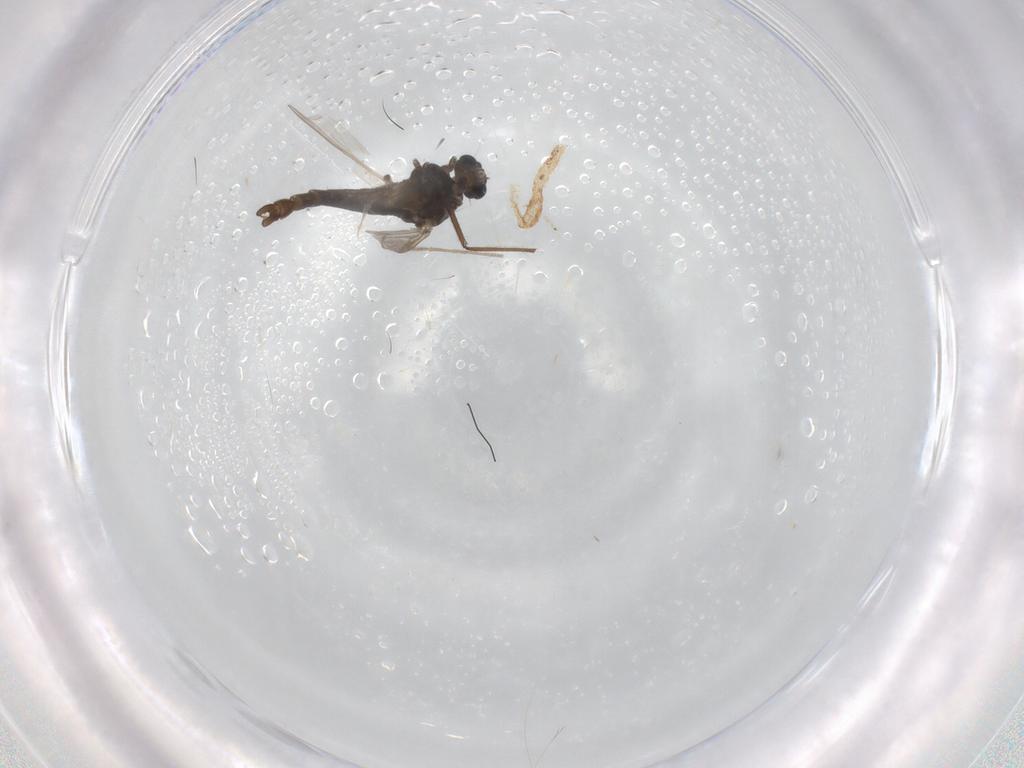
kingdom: Animalia
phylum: Arthropoda
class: Insecta
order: Diptera
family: Chironomidae
